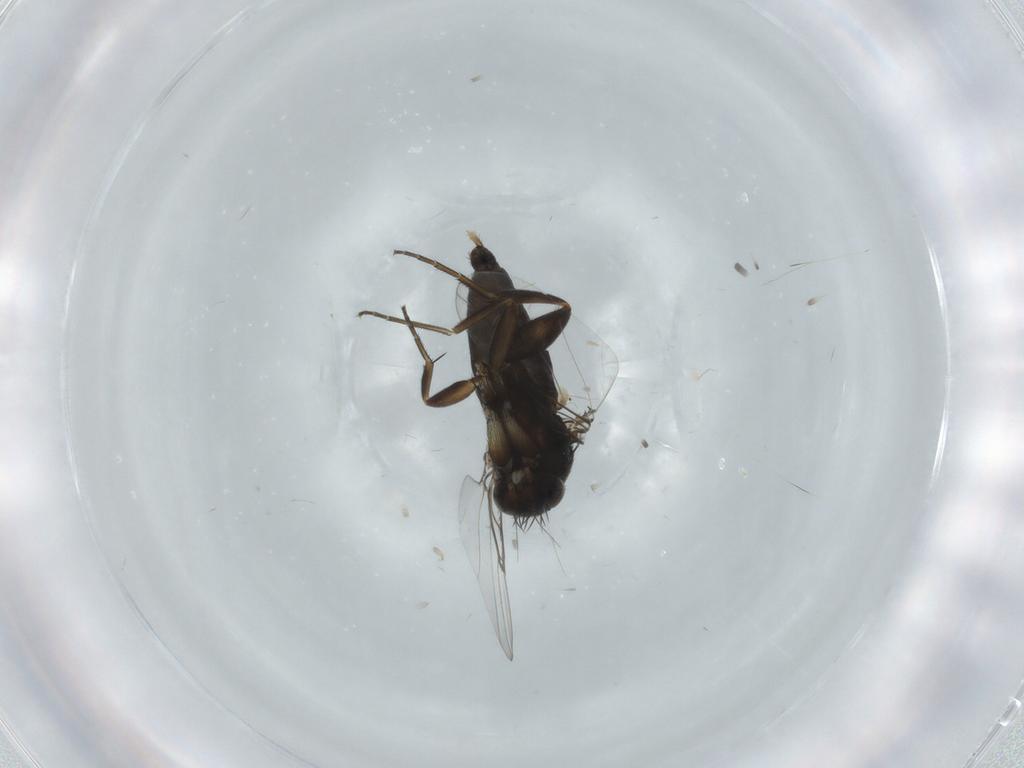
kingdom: Animalia
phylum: Arthropoda
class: Insecta
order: Diptera
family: Phoridae
